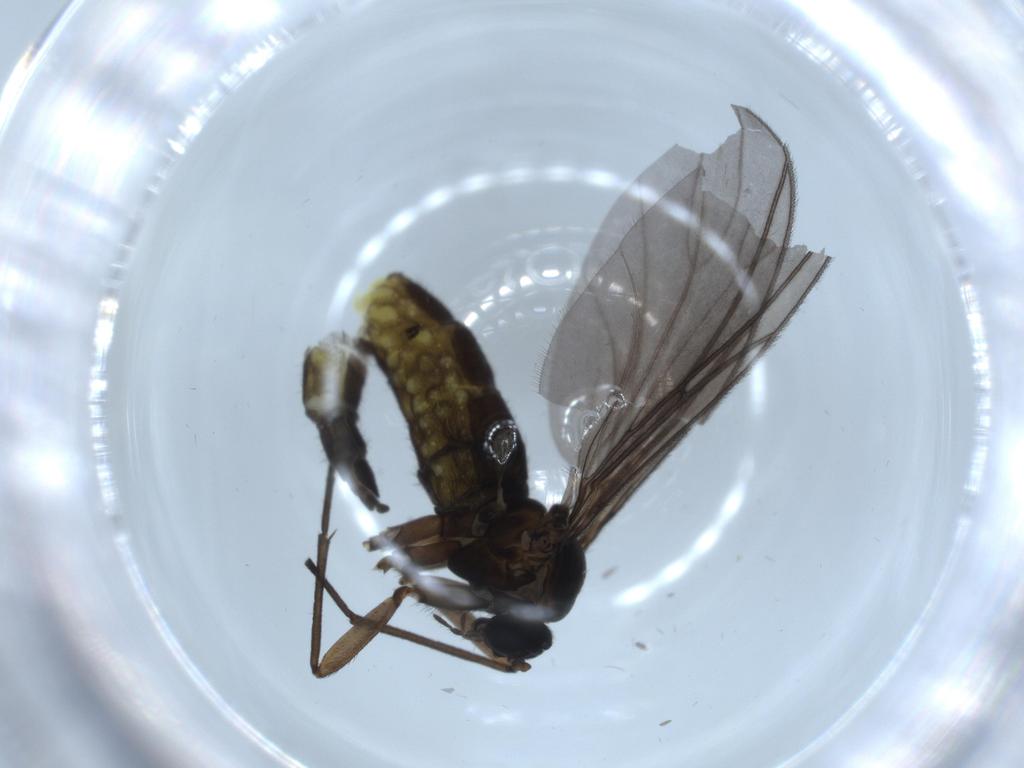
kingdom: Animalia
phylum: Arthropoda
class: Insecta
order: Diptera
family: Sciaridae
